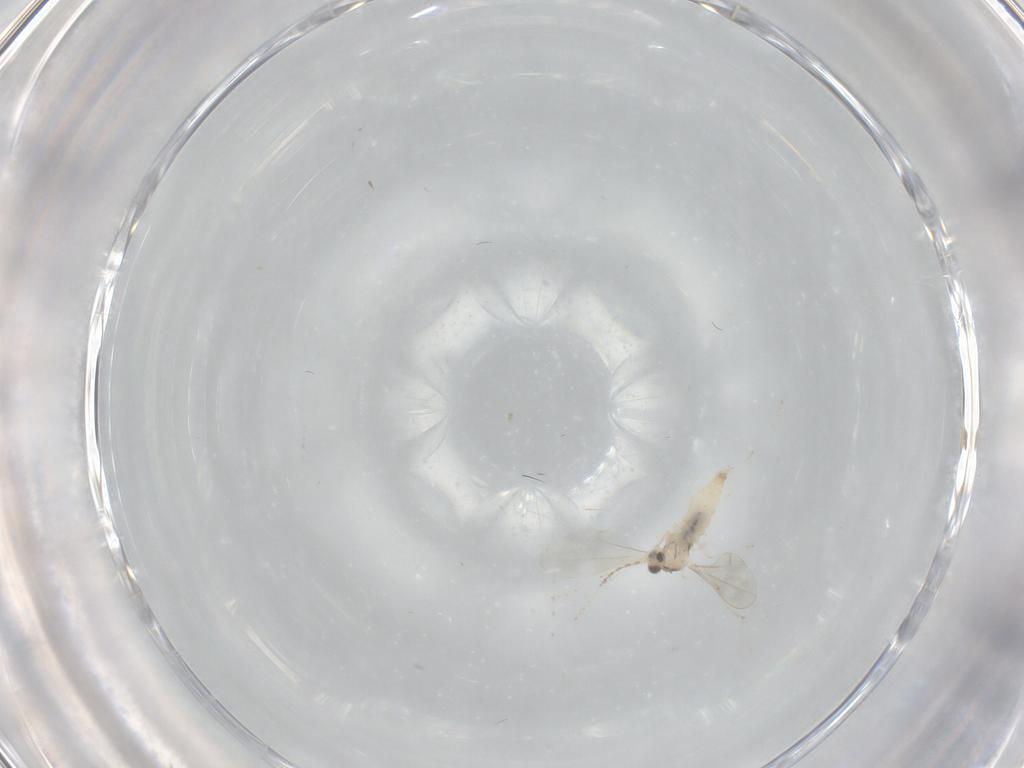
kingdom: Animalia
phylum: Arthropoda
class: Insecta
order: Diptera
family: Cecidomyiidae
